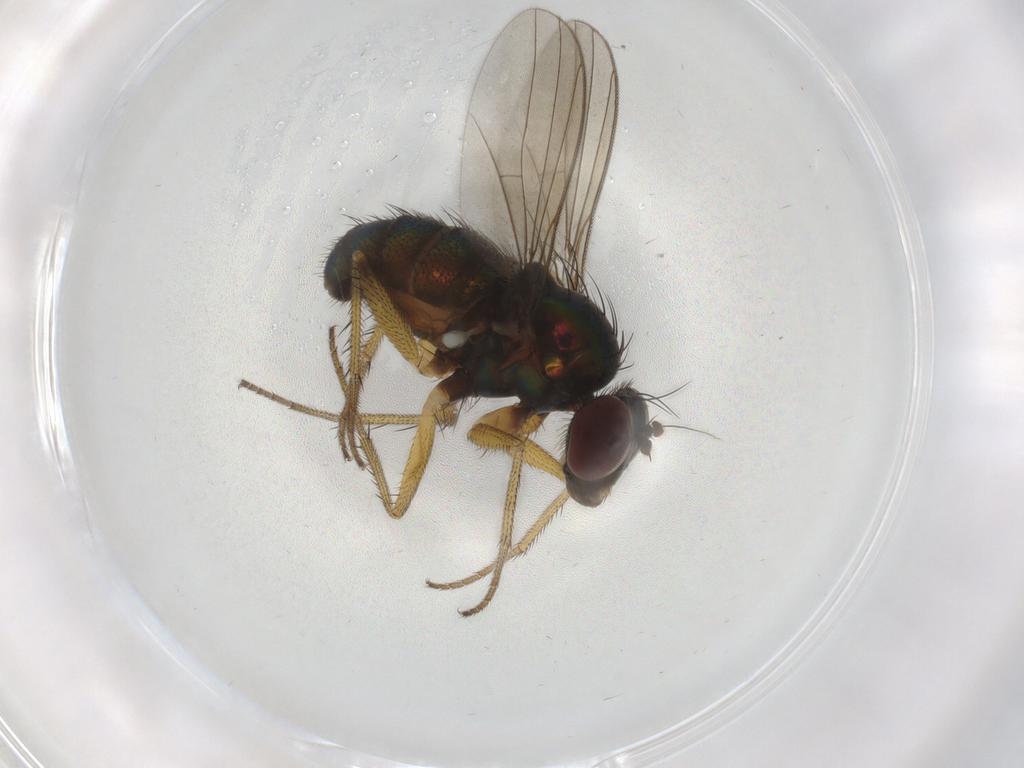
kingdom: Animalia
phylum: Arthropoda
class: Insecta
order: Diptera
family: Dolichopodidae
